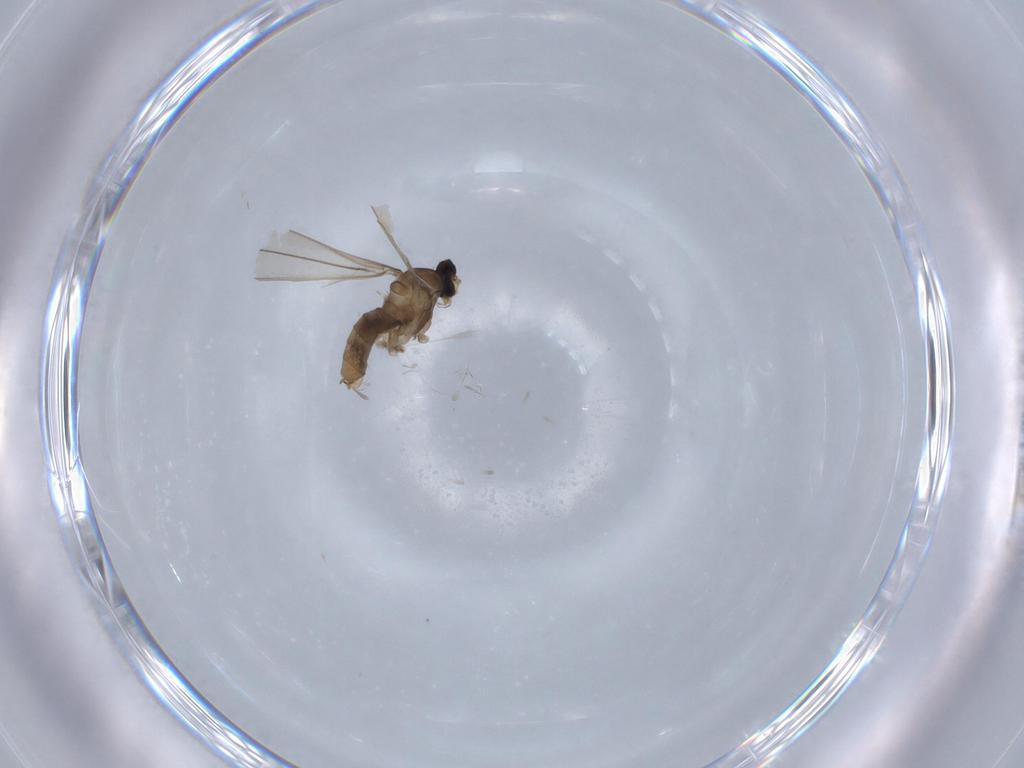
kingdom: Animalia
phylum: Arthropoda
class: Insecta
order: Diptera
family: Cecidomyiidae
